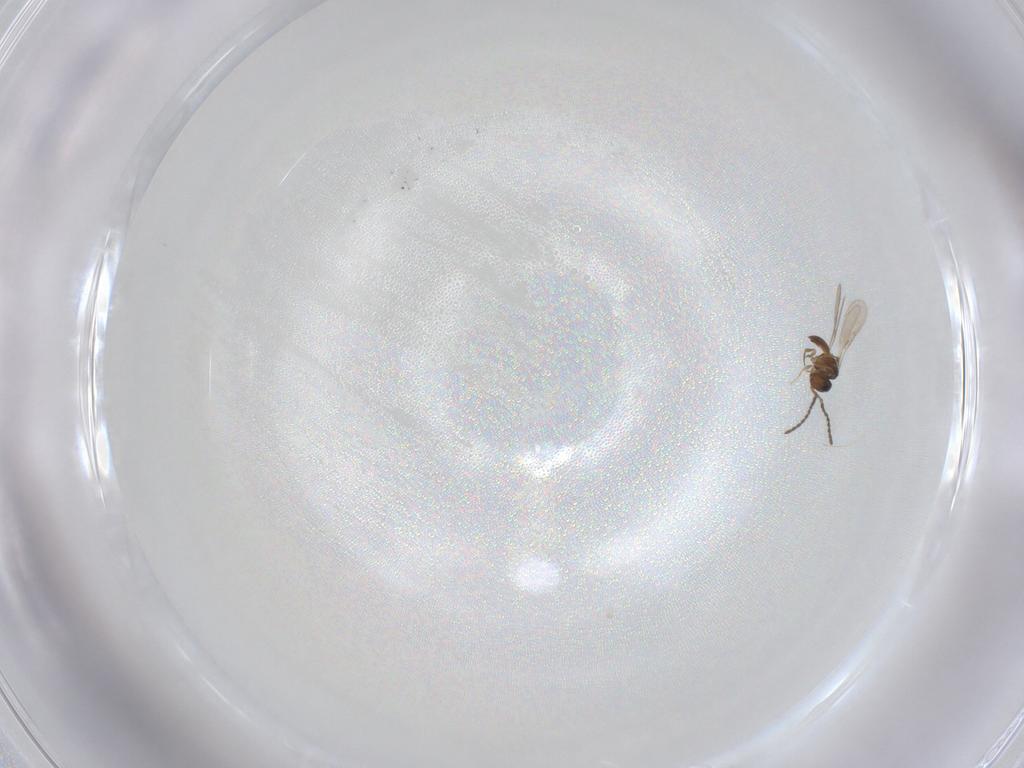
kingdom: Animalia
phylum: Arthropoda
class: Insecta
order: Hymenoptera
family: Scelionidae
